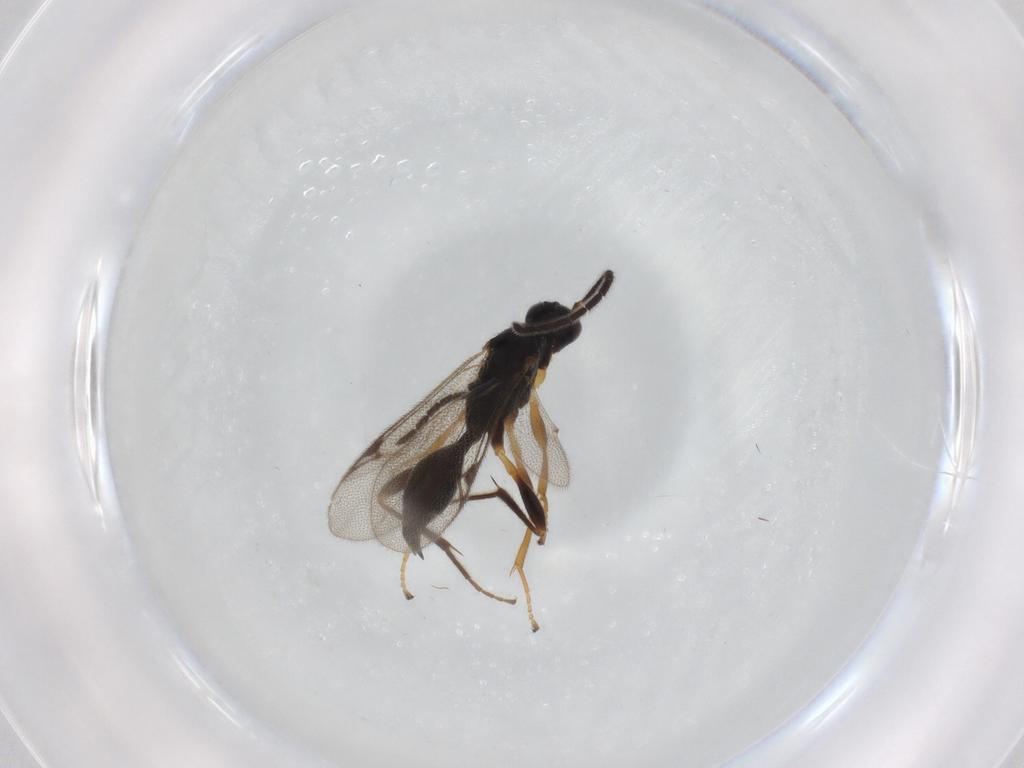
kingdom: Animalia
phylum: Arthropoda
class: Insecta
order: Hymenoptera
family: Proctotrupidae
